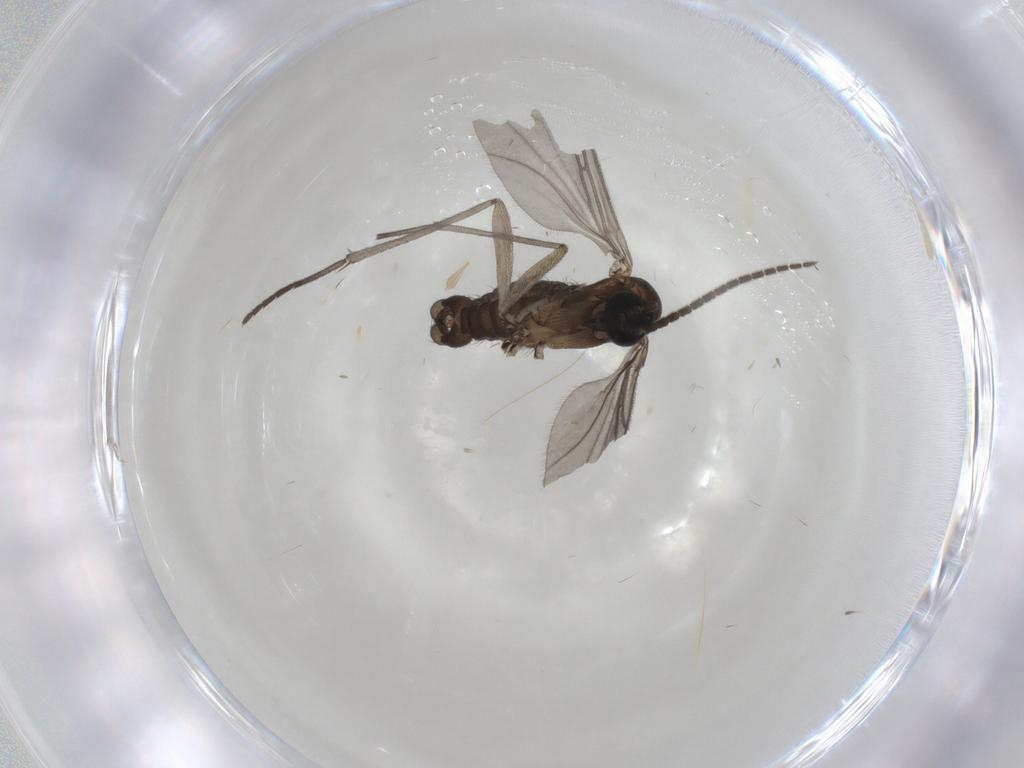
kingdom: Animalia
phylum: Arthropoda
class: Insecta
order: Diptera
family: Sciaridae
